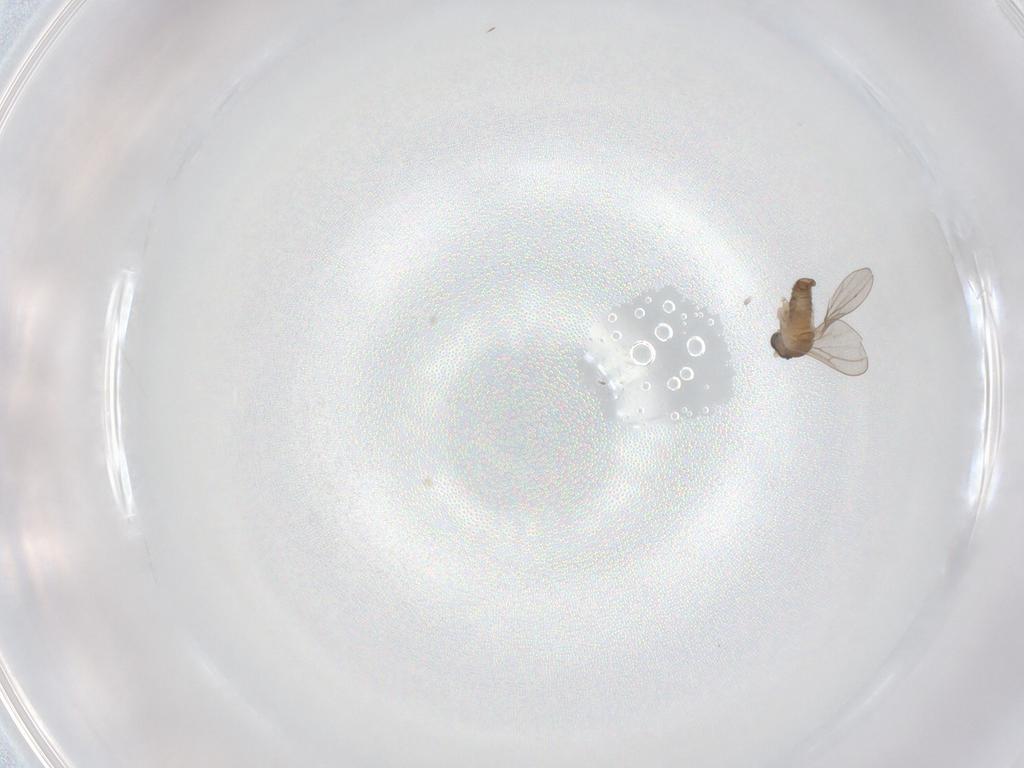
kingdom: Animalia
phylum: Arthropoda
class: Insecta
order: Diptera
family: Cecidomyiidae
